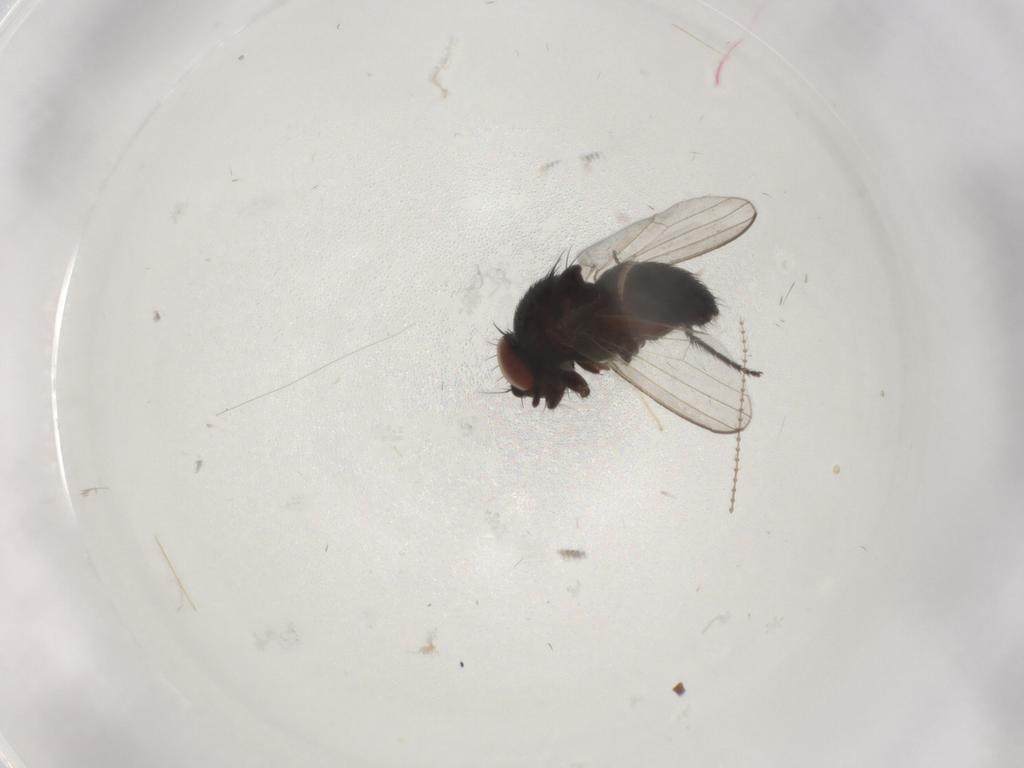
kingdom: Animalia
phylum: Arthropoda
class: Insecta
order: Diptera
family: Milichiidae
